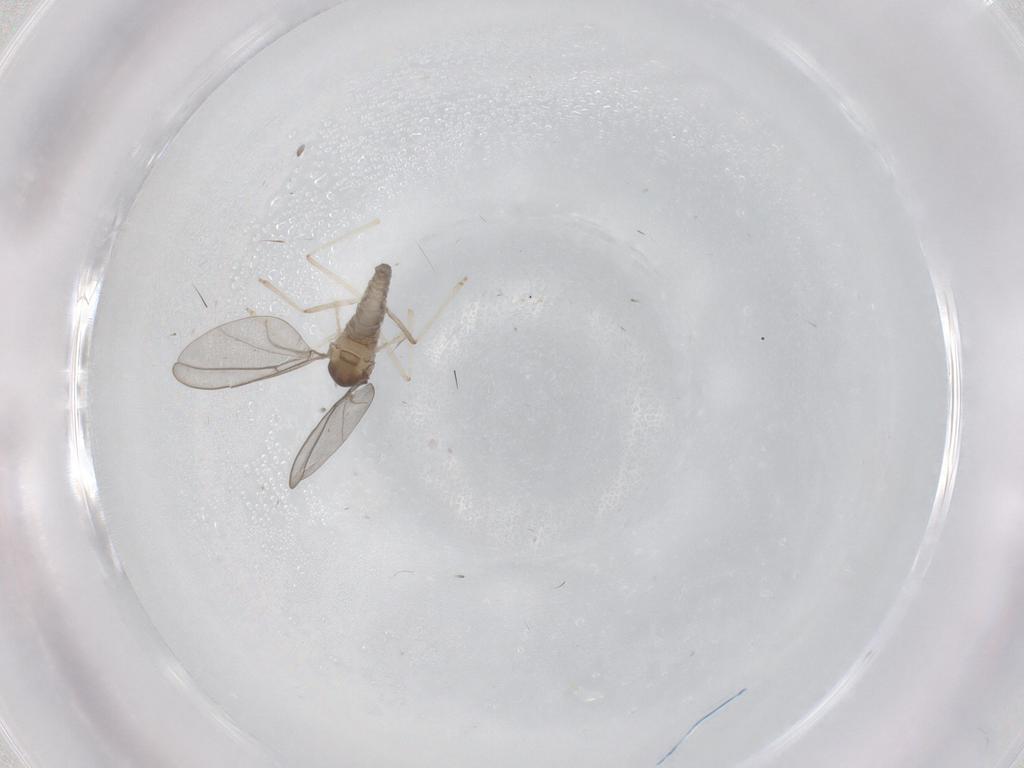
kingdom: Animalia
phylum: Arthropoda
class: Insecta
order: Diptera
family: Cecidomyiidae
